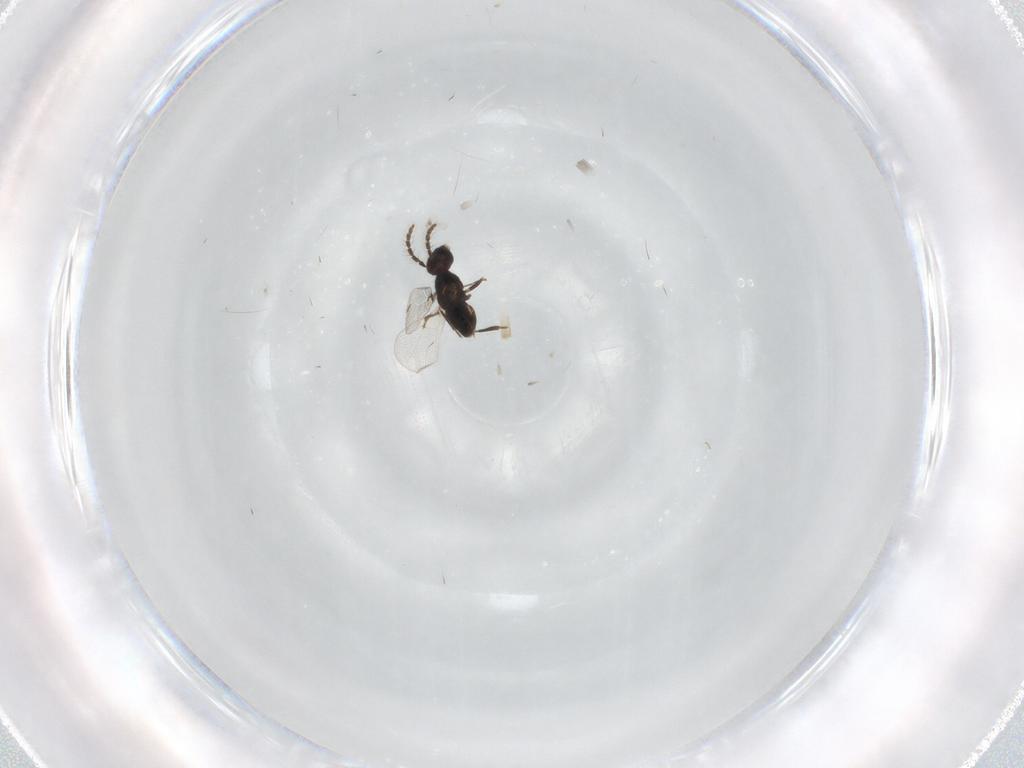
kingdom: Animalia
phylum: Arthropoda
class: Insecta
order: Hymenoptera
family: Trichogrammatidae
